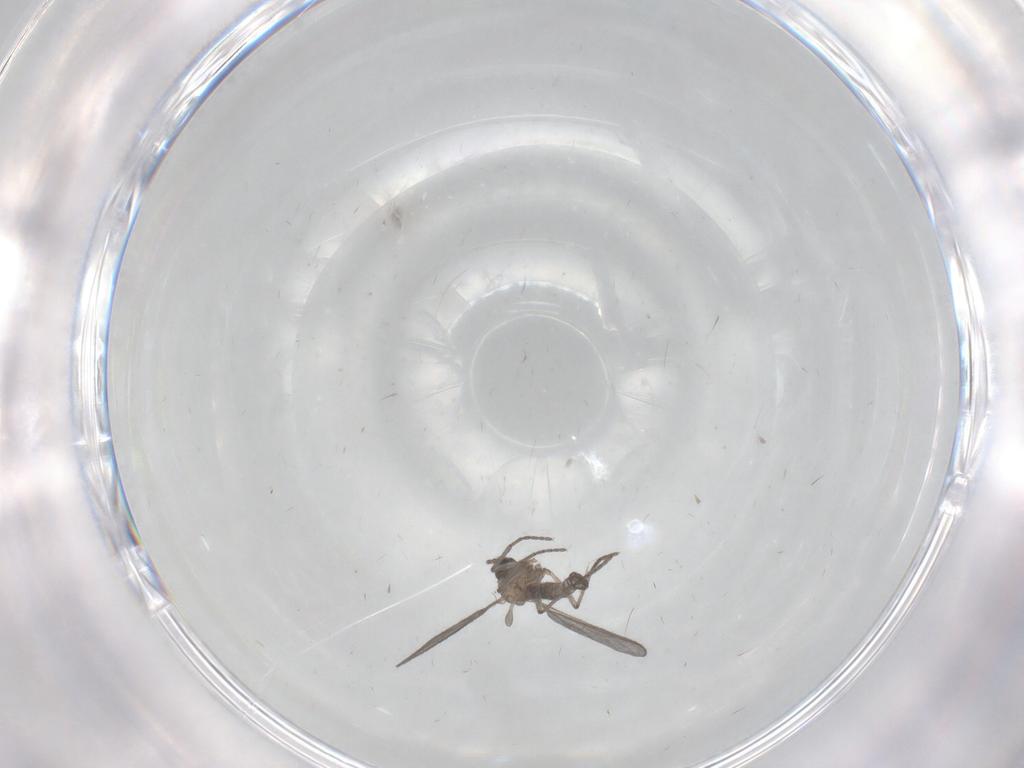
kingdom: Animalia
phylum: Arthropoda
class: Insecta
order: Diptera
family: Sciaridae
